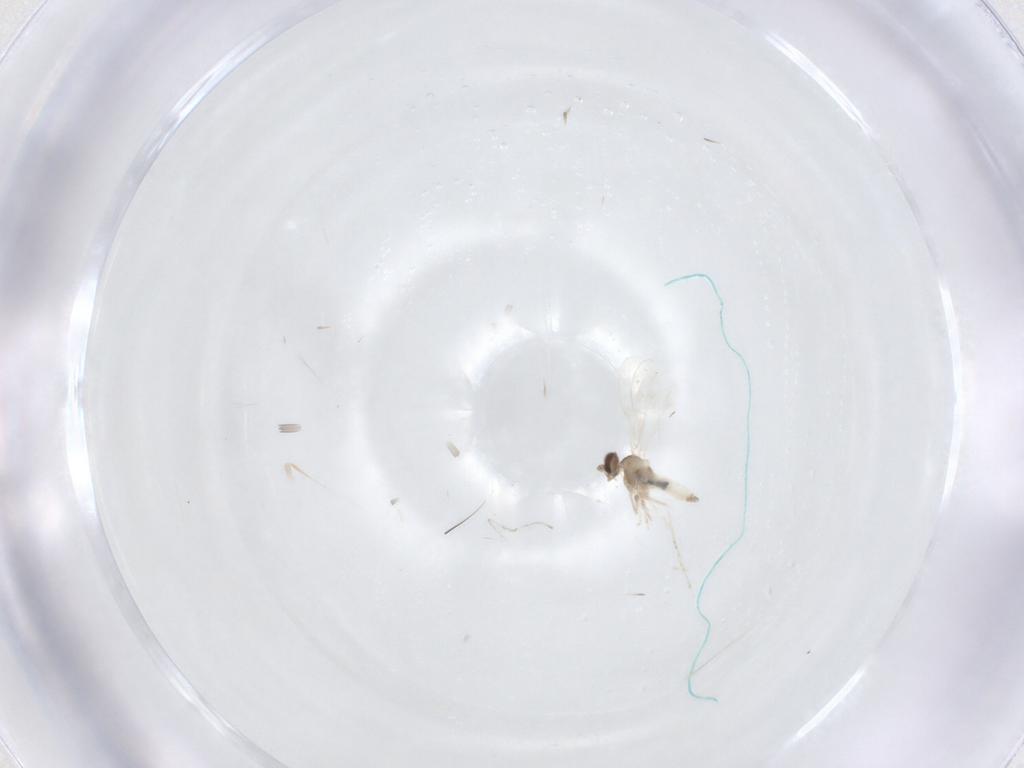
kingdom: Animalia
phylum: Arthropoda
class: Insecta
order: Diptera
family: Cecidomyiidae
